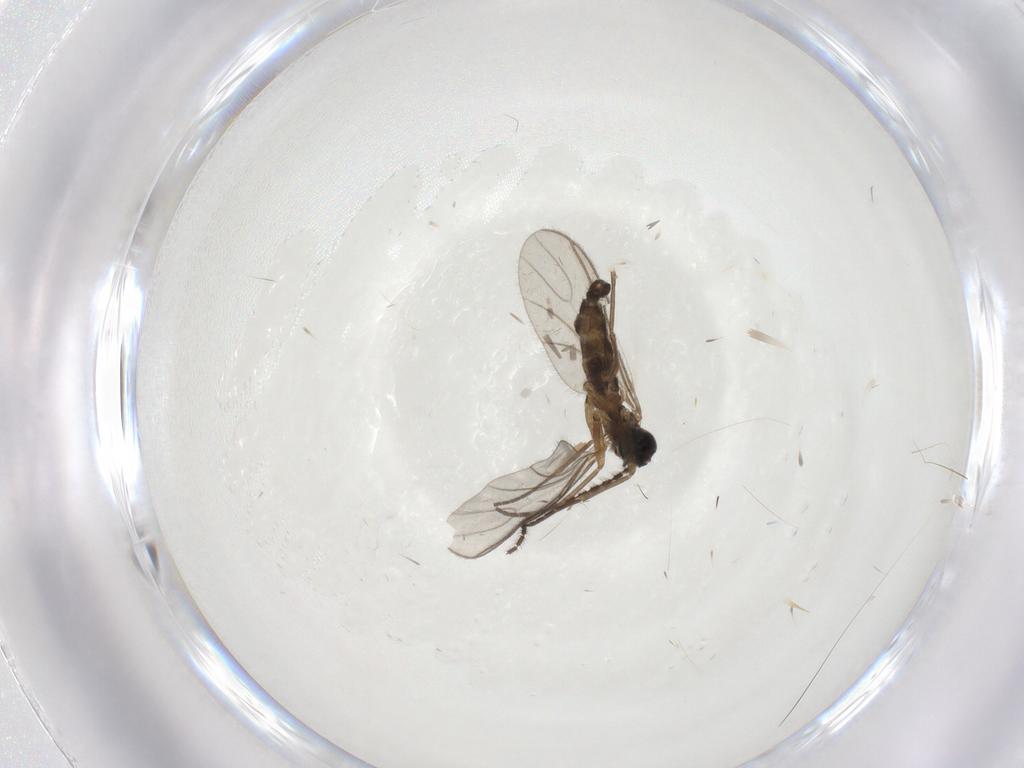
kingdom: Animalia
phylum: Arthropoda
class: Insecta
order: Diptera
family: Sciaridae
